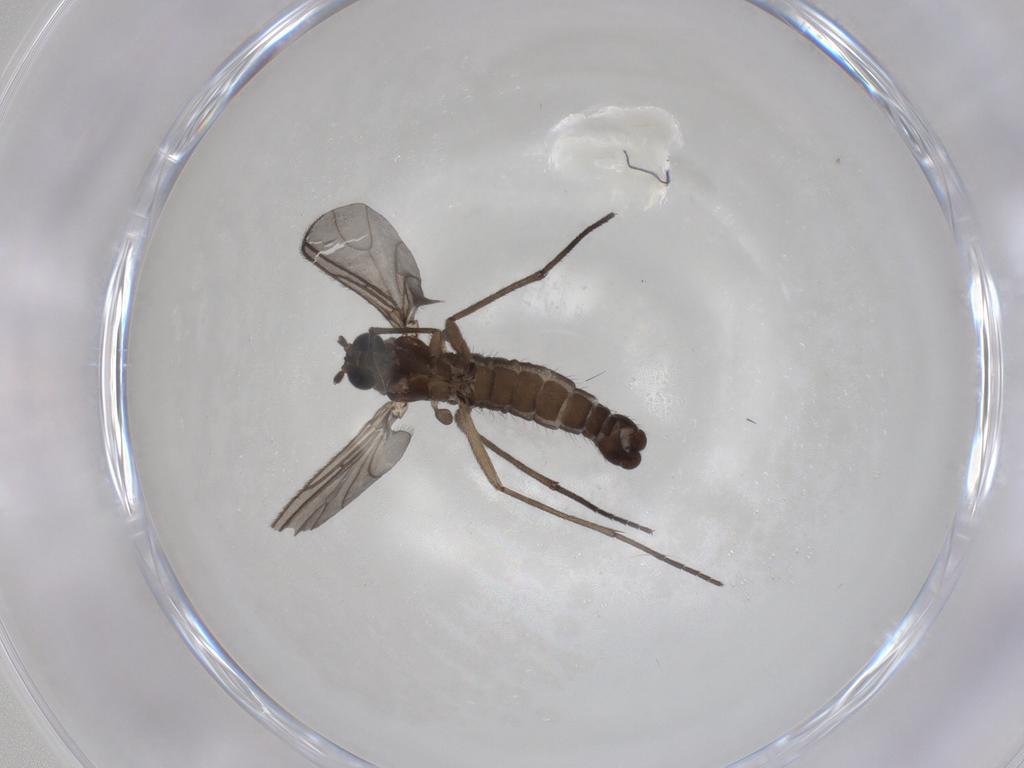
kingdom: Animalia
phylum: Arthropoda
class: Insecta
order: Diptera
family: Sciaridae
